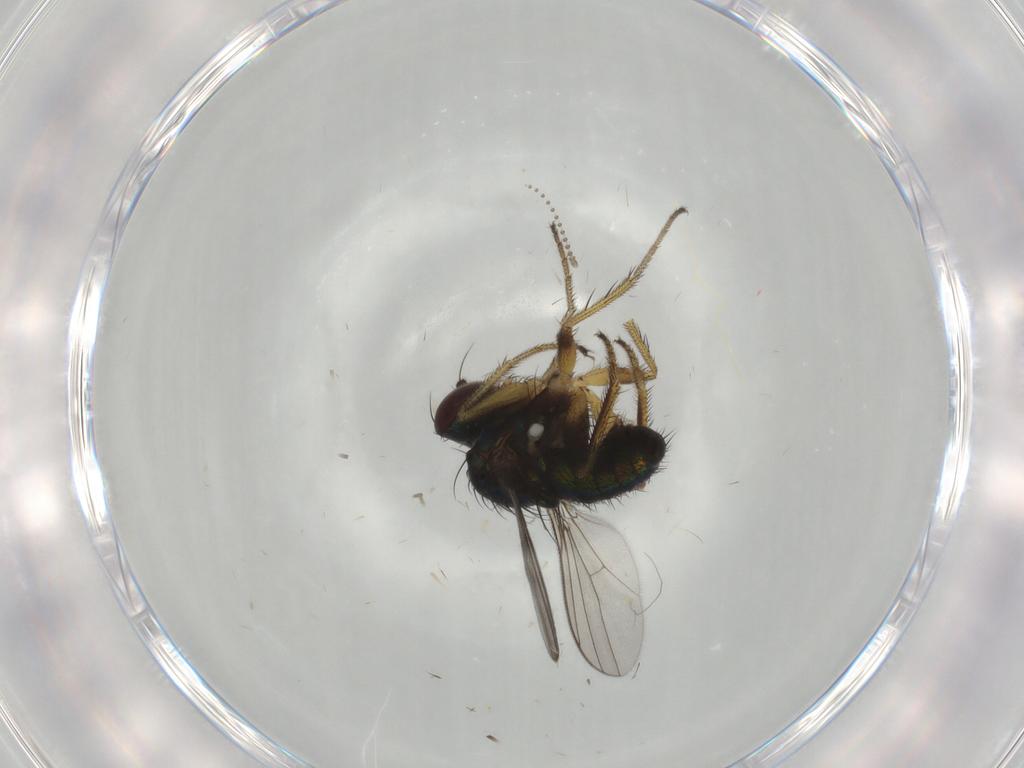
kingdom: Animalia
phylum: Arthropoda
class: Insecta
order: Diptera
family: Dolichopodidae
